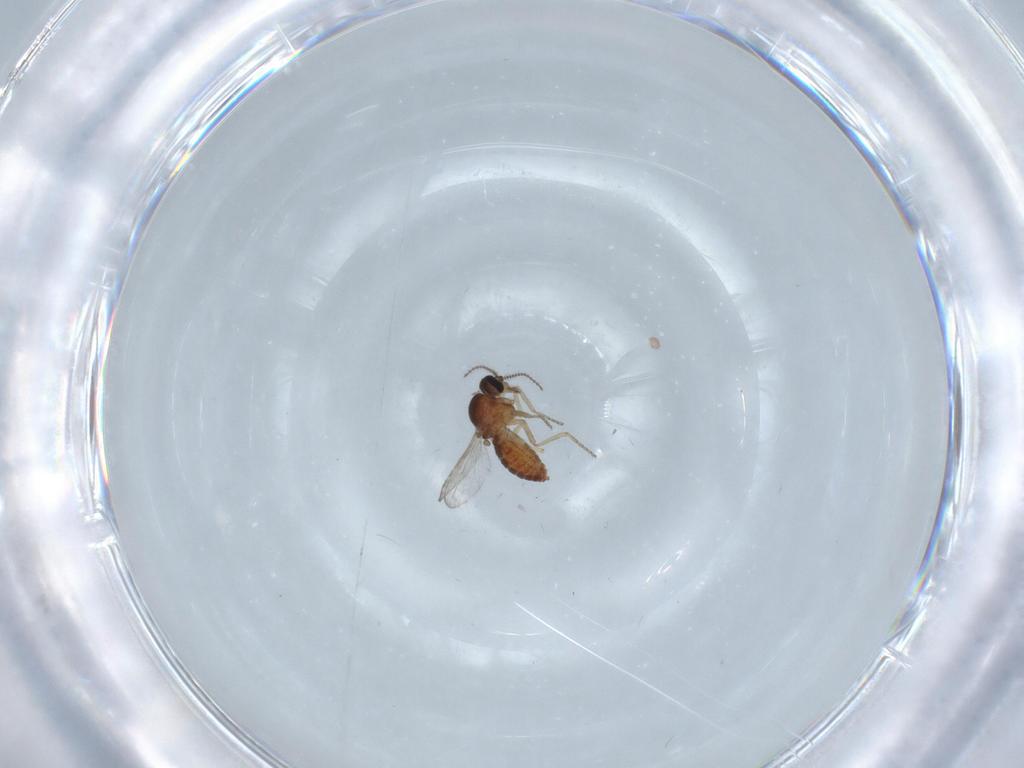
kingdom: Animalia
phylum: Arthropoda
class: Insecta
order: Diptera
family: Ceratopogonidae
